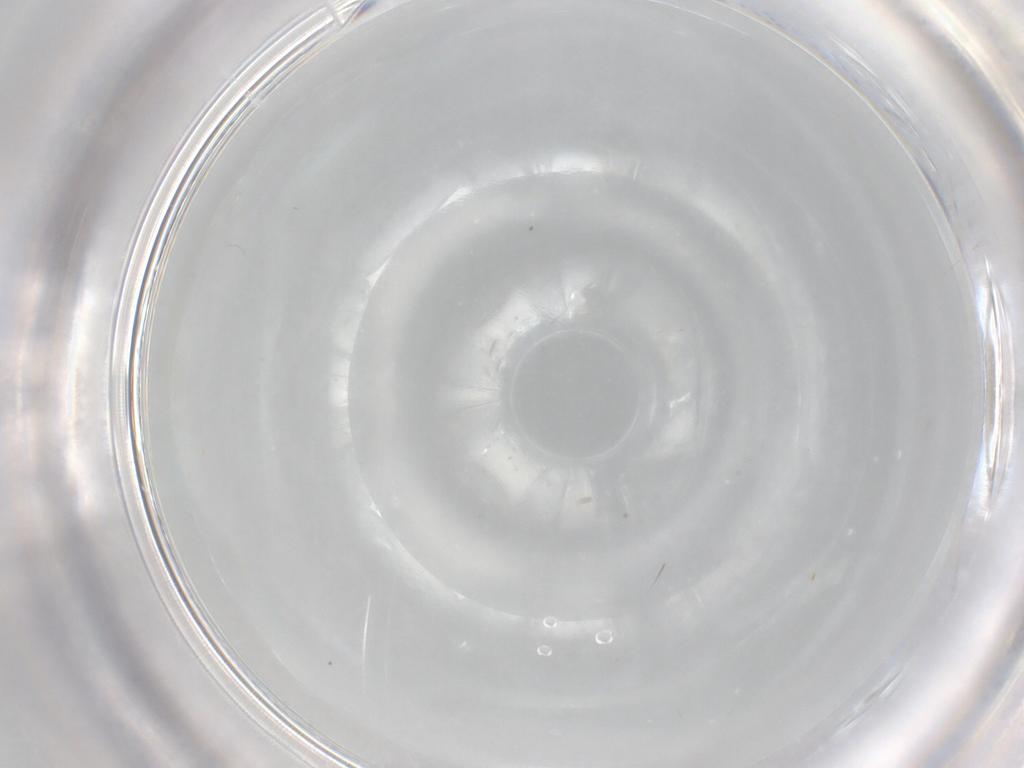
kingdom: Animalia
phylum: Arthropoda
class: Insecta
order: Diptera
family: Cecidomyiidae
